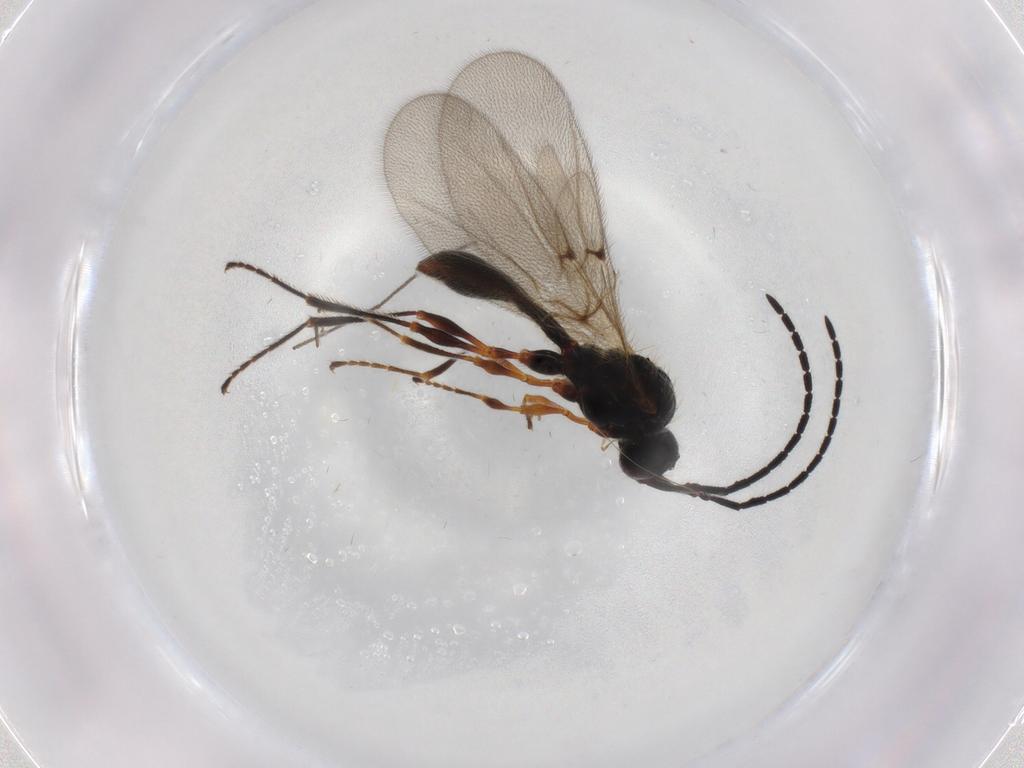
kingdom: Animalia
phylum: Arthropoda
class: Insecta
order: Hymenoptera
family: Diapriidae
